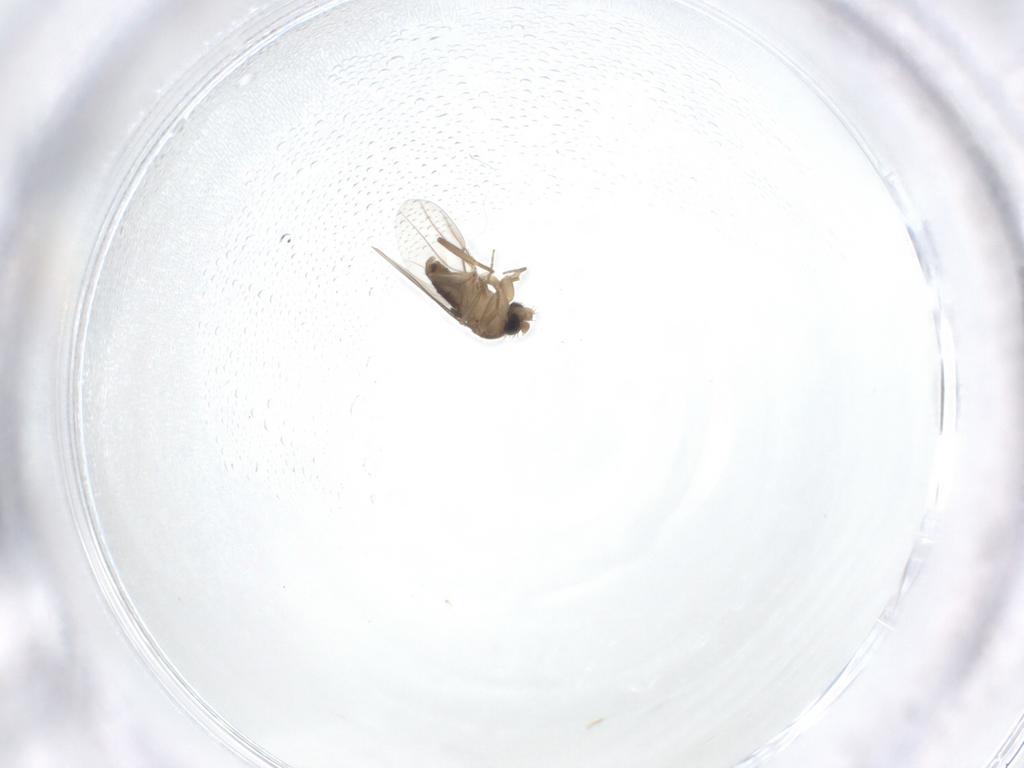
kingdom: Animalia
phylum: Arthropoda
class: Insecta
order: Diptera
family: Phoridae
